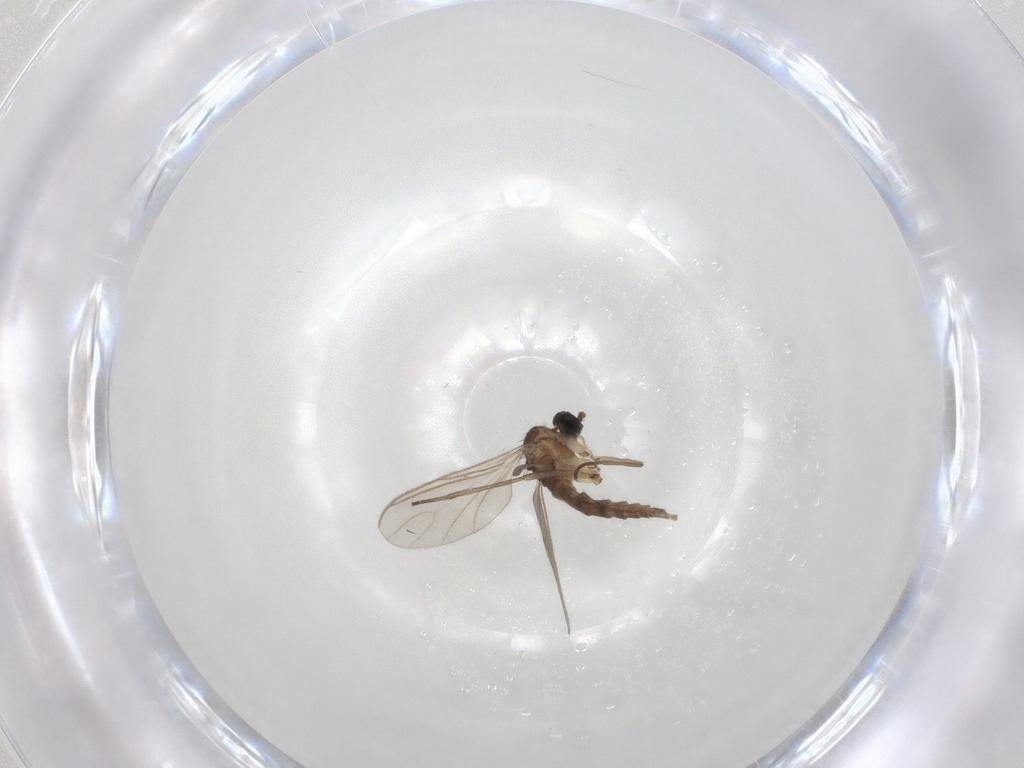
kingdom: Animalia
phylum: Arthropoda
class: Insecta
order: Diptera
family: Sciaridae
